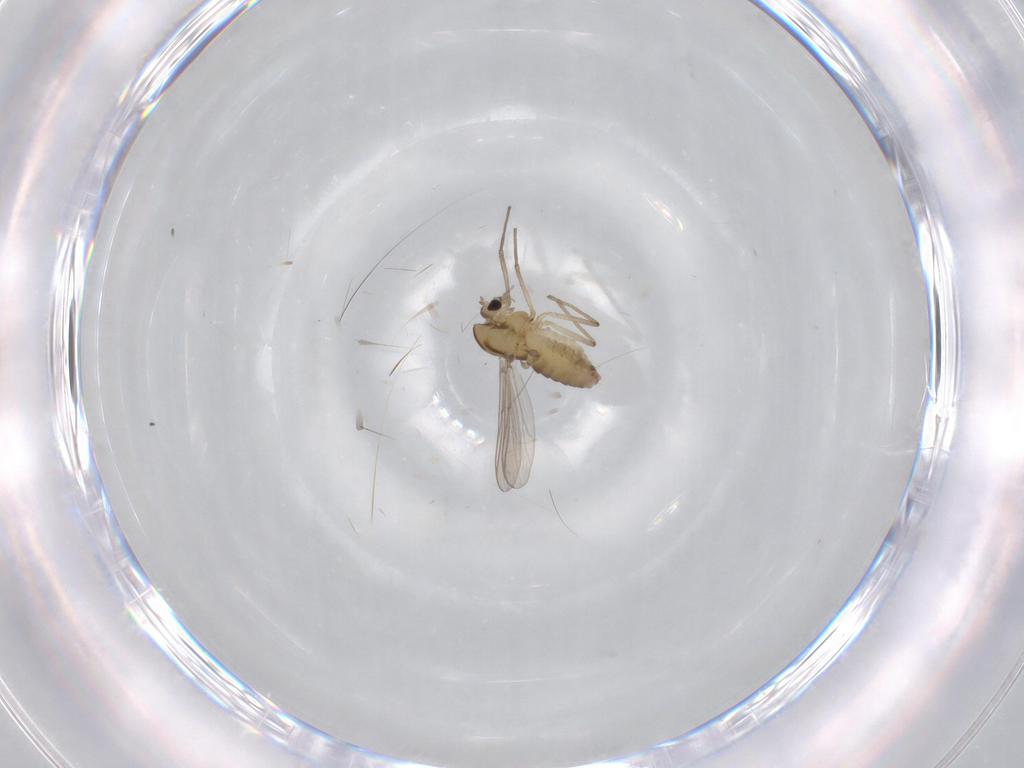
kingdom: Animalia
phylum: Arthropoda
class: Insecta
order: Diptera
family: Chironomidae
